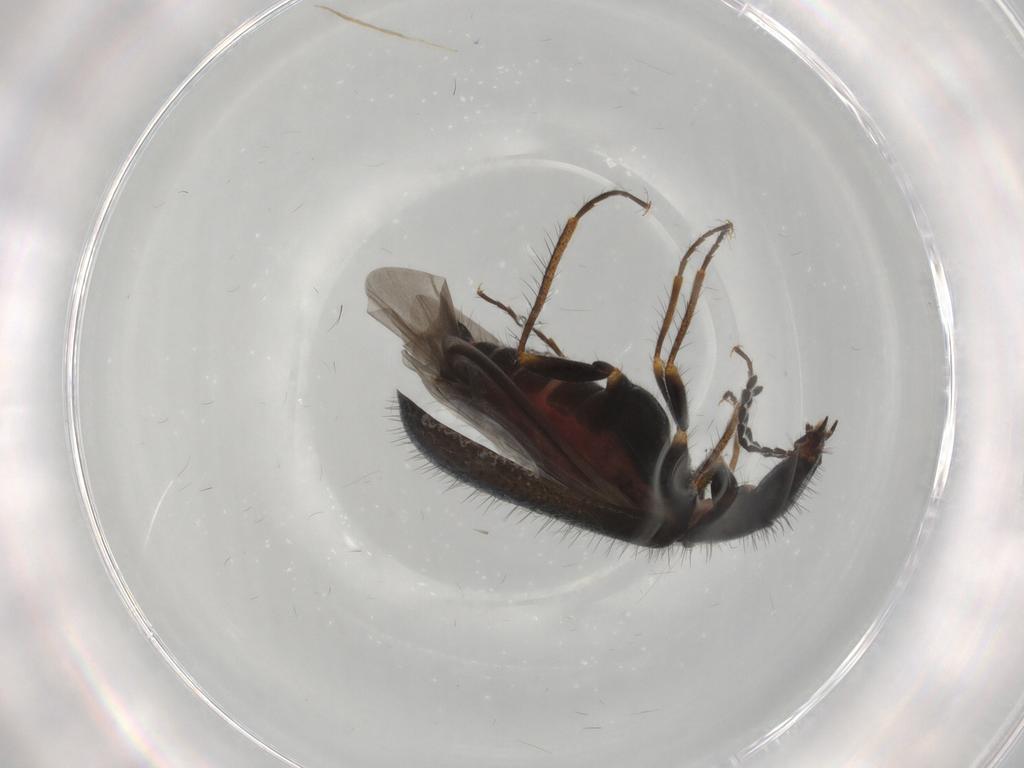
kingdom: Animalia
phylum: Arthropoda
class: Insecta
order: Coleoptera
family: Melyridae
